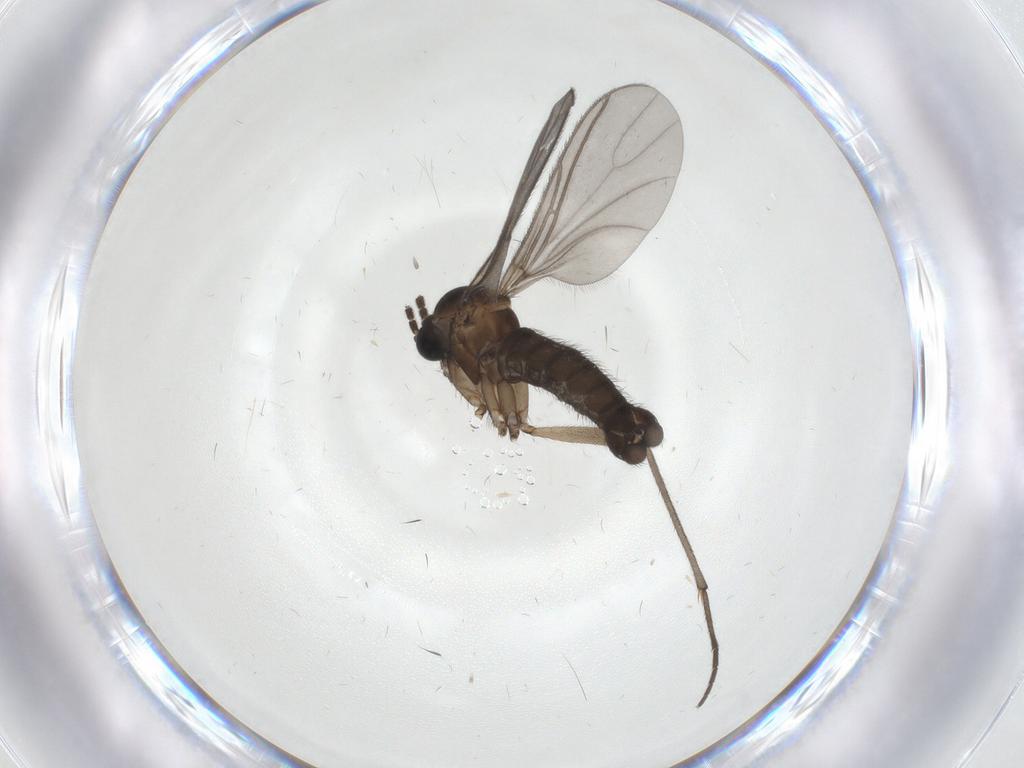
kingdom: Animalia
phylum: Arthropoda
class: Insecta
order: Diptera
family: Sciaridae
